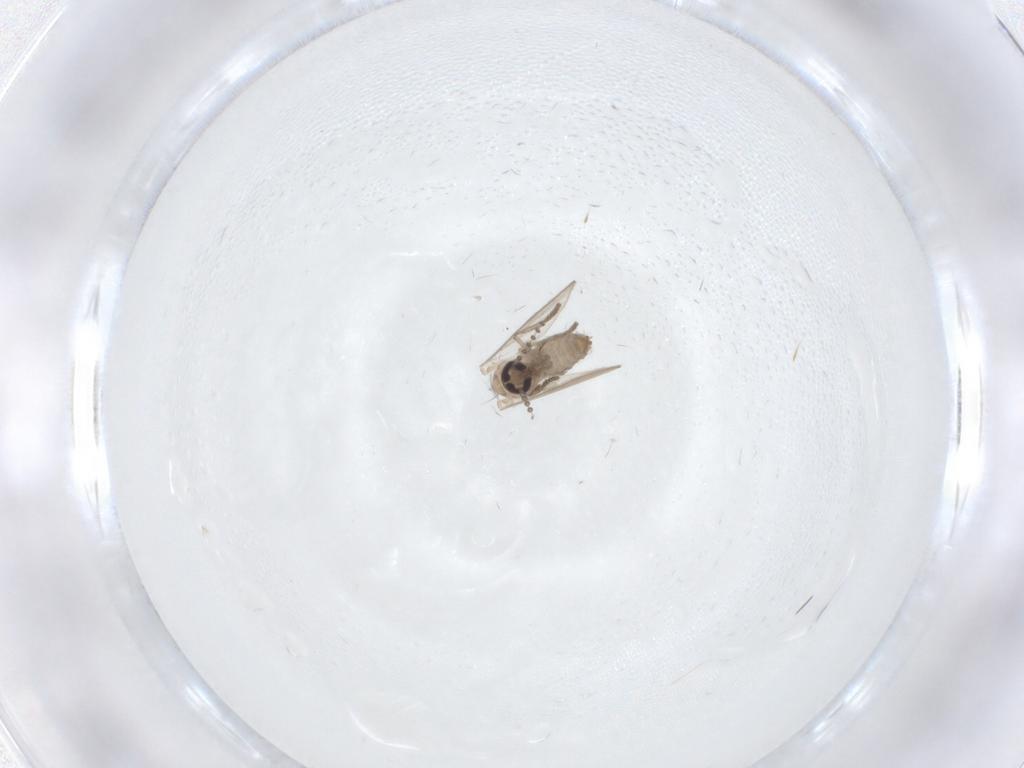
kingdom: Animalia
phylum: Arthropoda
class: Insecta
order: Diptera
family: Psychodidae
